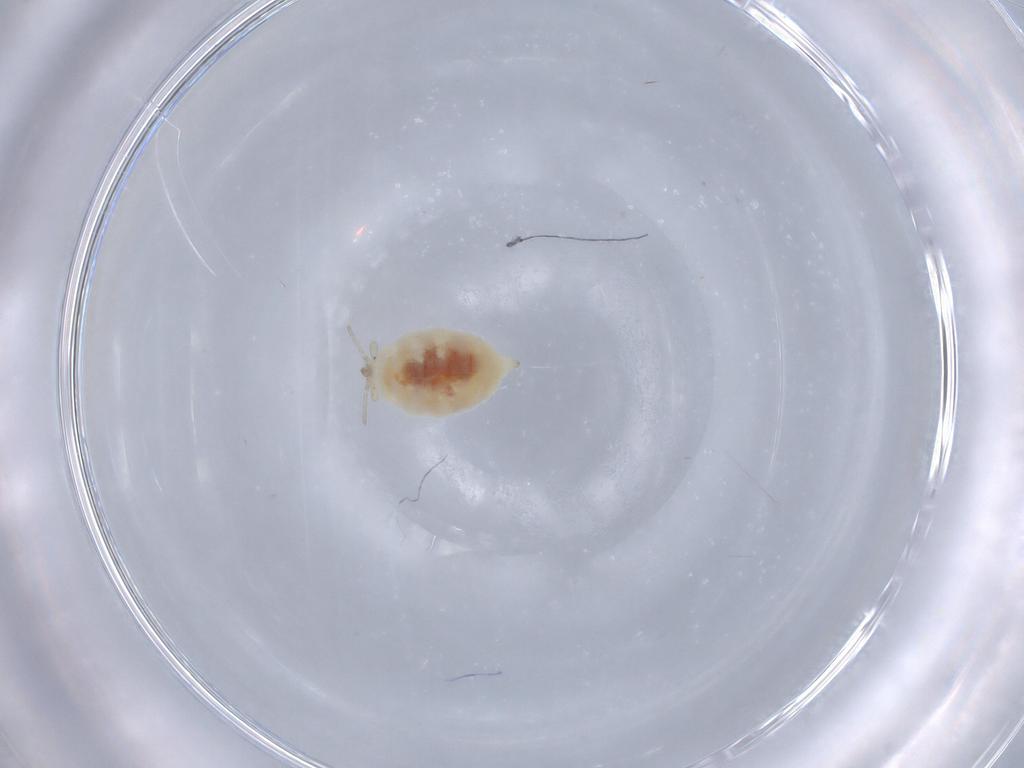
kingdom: Animalia
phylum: Arthropoda
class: Insecta
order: Neuroptera
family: Coniopterygidae
